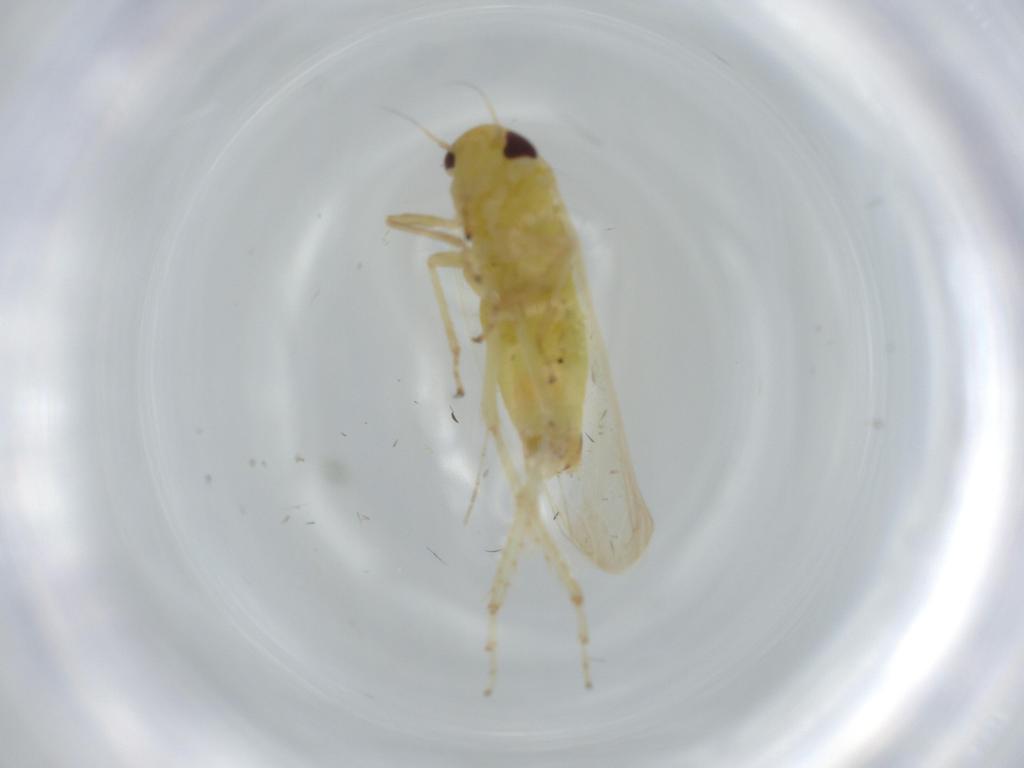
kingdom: Animalia
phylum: Arthropoda
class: Insecta
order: Hemiptera
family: Cicadellidae
